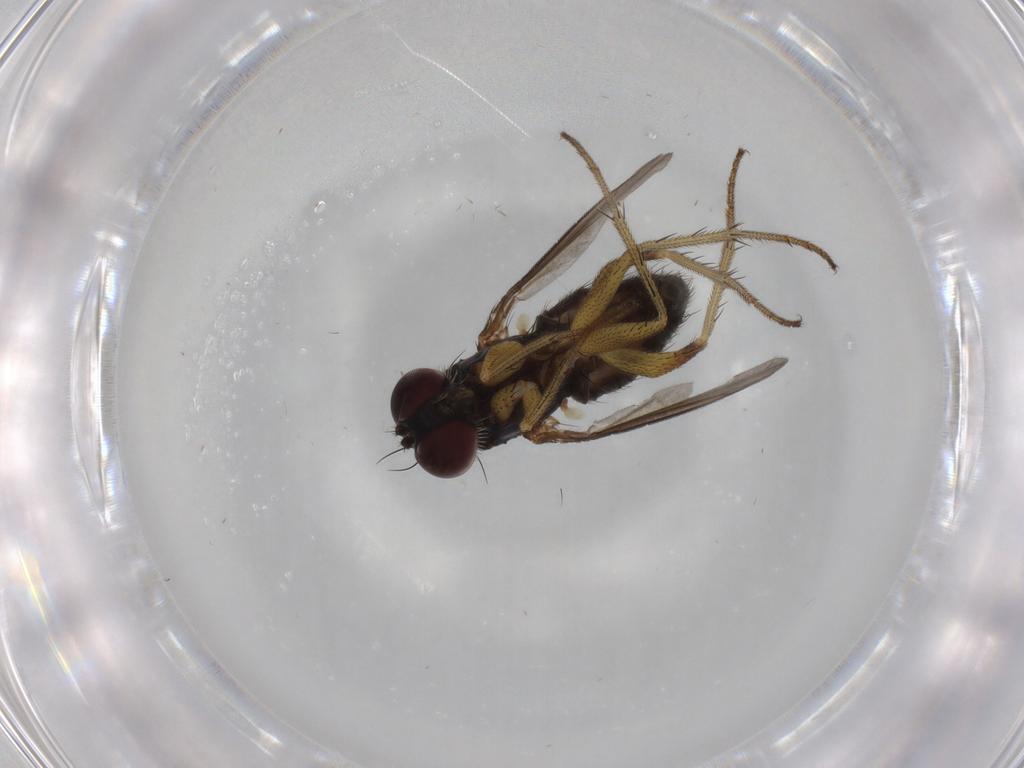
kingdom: Animalia
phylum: Arthropoda
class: Insecta
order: Diptera
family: Dolichopodidae
